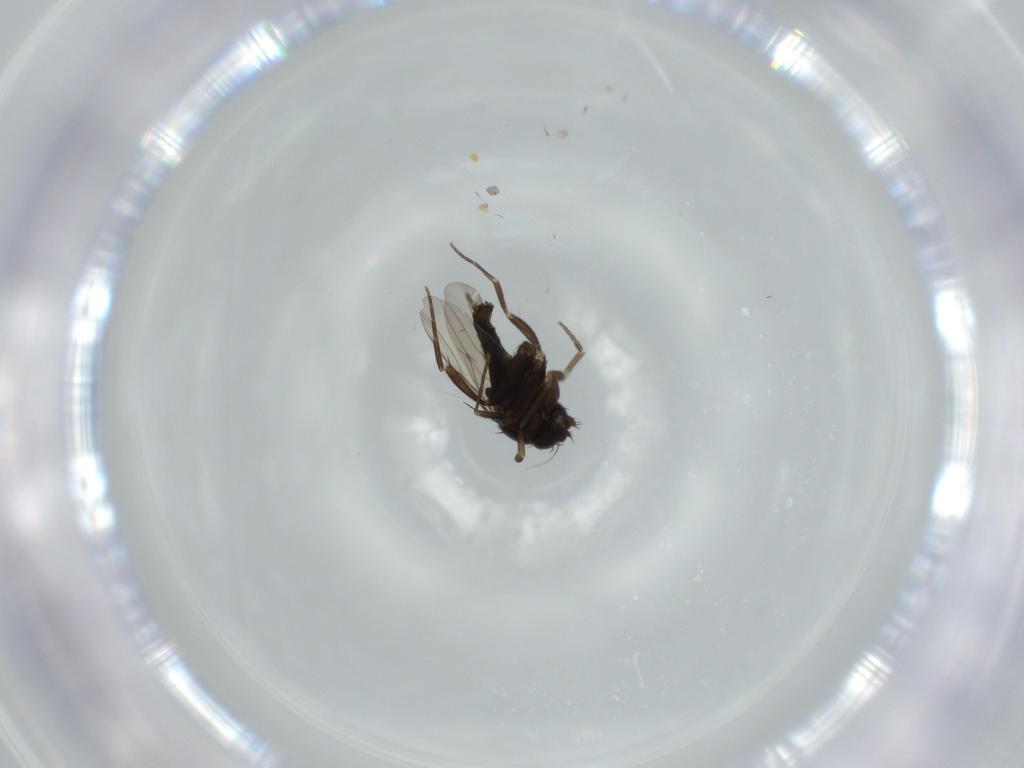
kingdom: Animalia
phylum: Arthropoda
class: Insecta
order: Diptera
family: Phoridae
